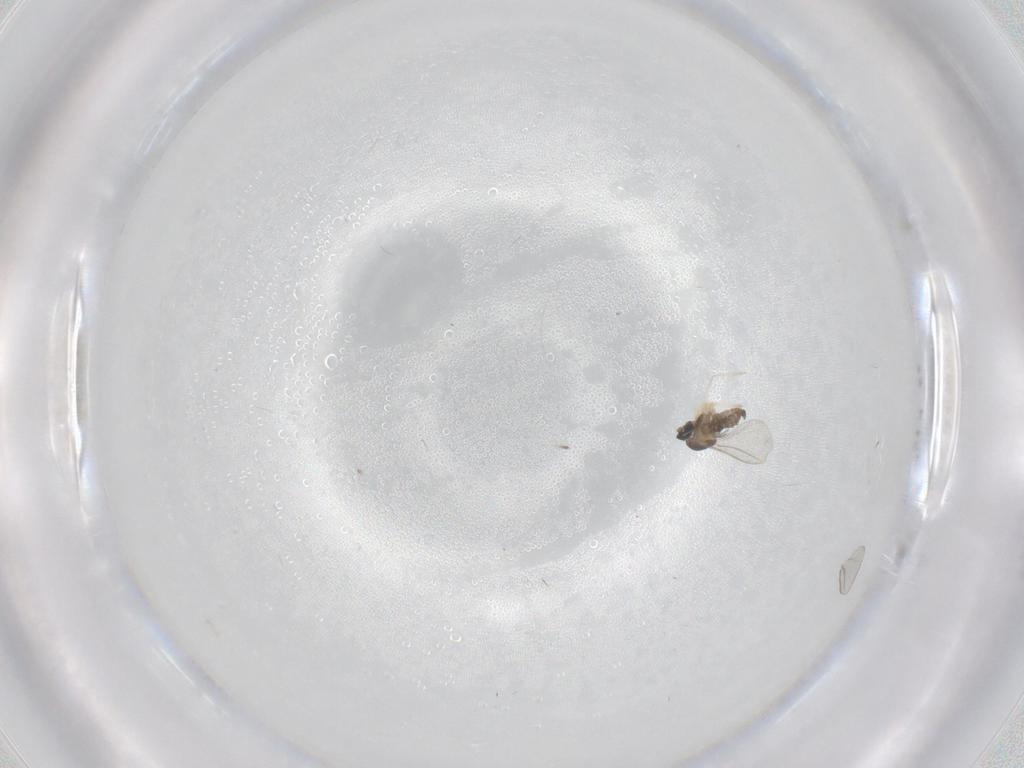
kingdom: Animalia
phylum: Arthropoda
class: Insecta
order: Diptera
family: Cecidomyiidae
